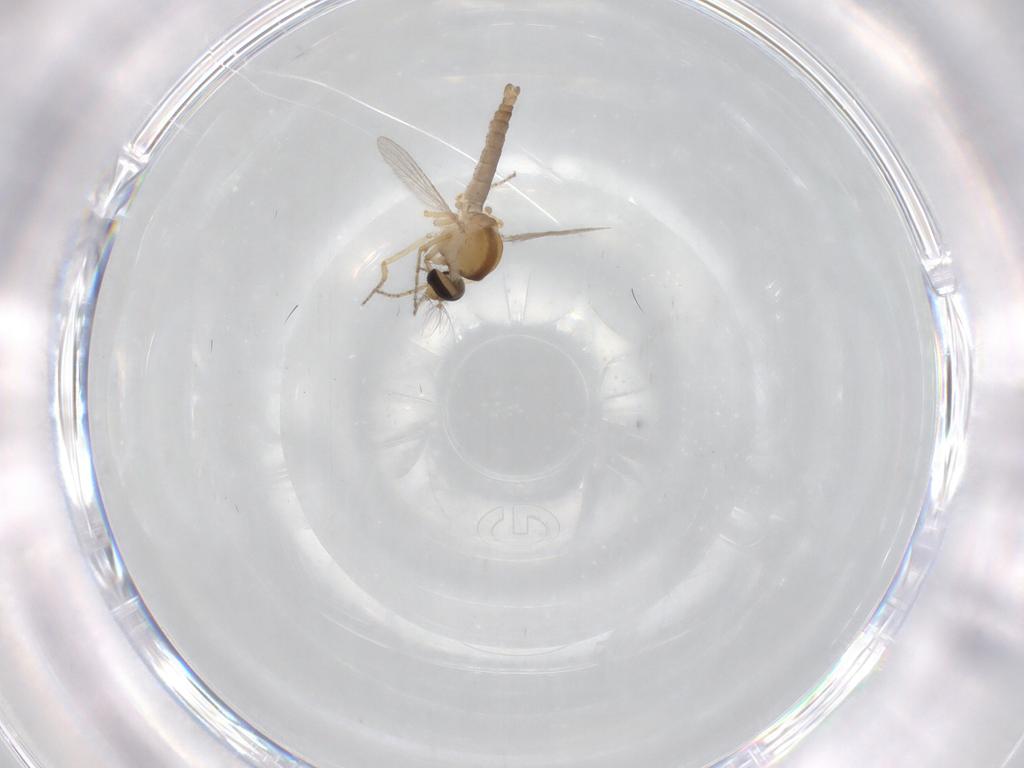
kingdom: Animalia
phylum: Arthropoda
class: Insecta
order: Diptera
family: Ceratopogonidae
